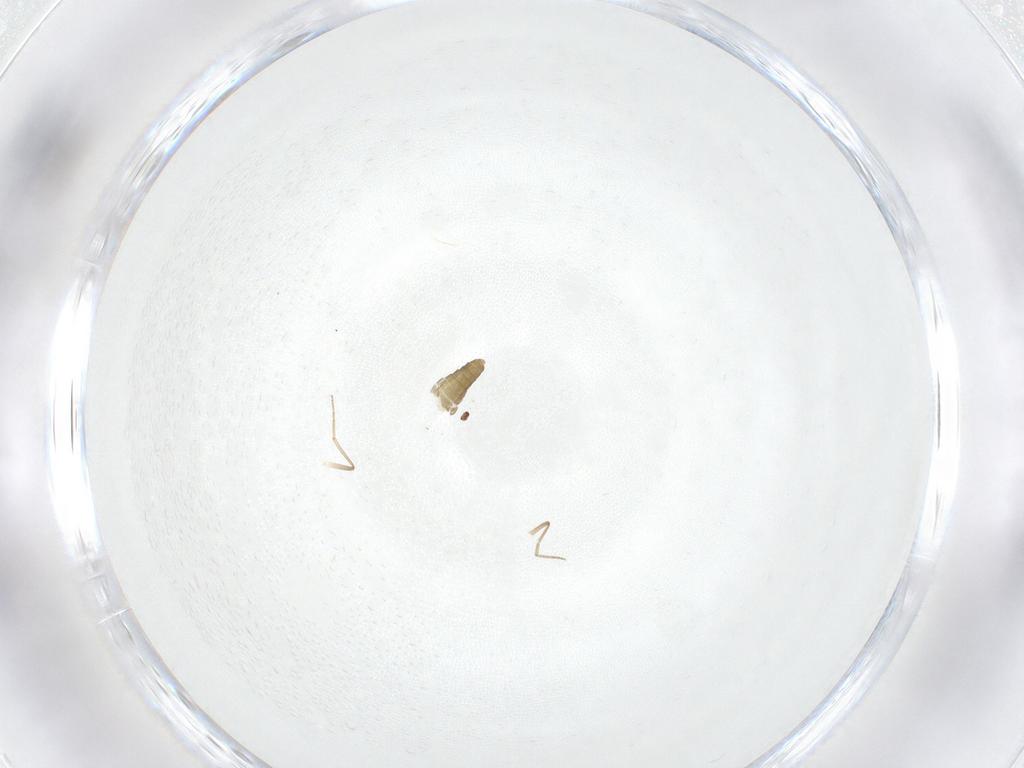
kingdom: Animalia
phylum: Arthropoda
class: Insecta
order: Diptera
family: Chironomidae
